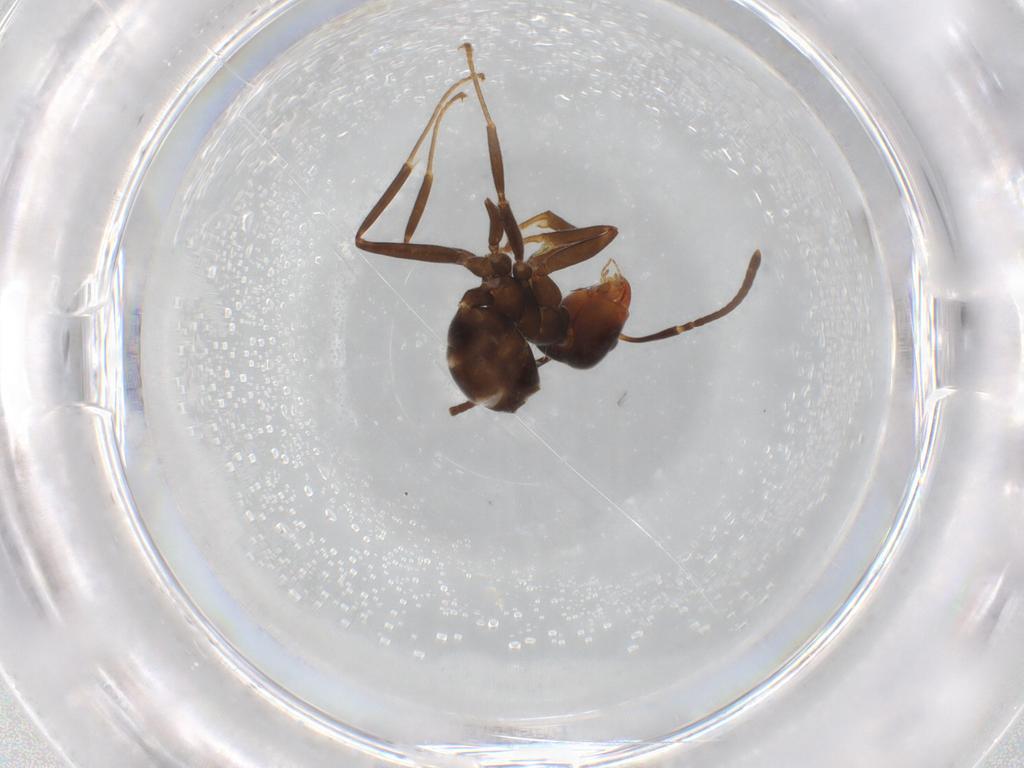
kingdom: Animalia
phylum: Arthropoda
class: Insecta
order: Hymenoptera
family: Formicidae
